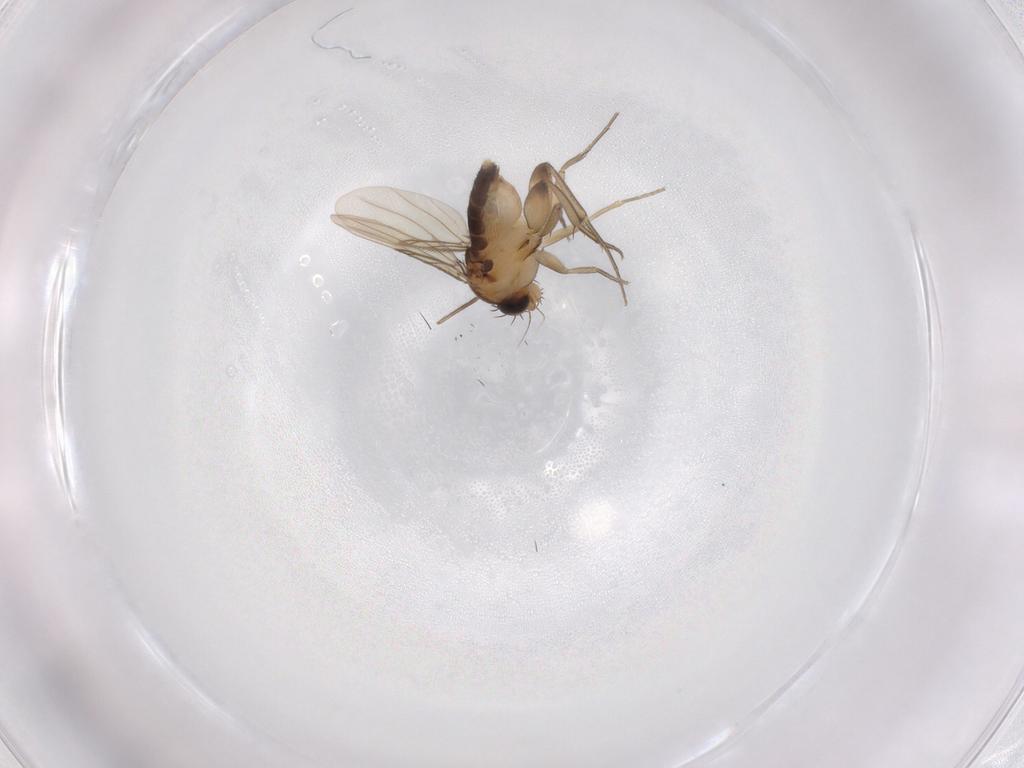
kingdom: Animalia
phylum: Arthropoda
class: Insecta
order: Diptera
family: Sciaridae
